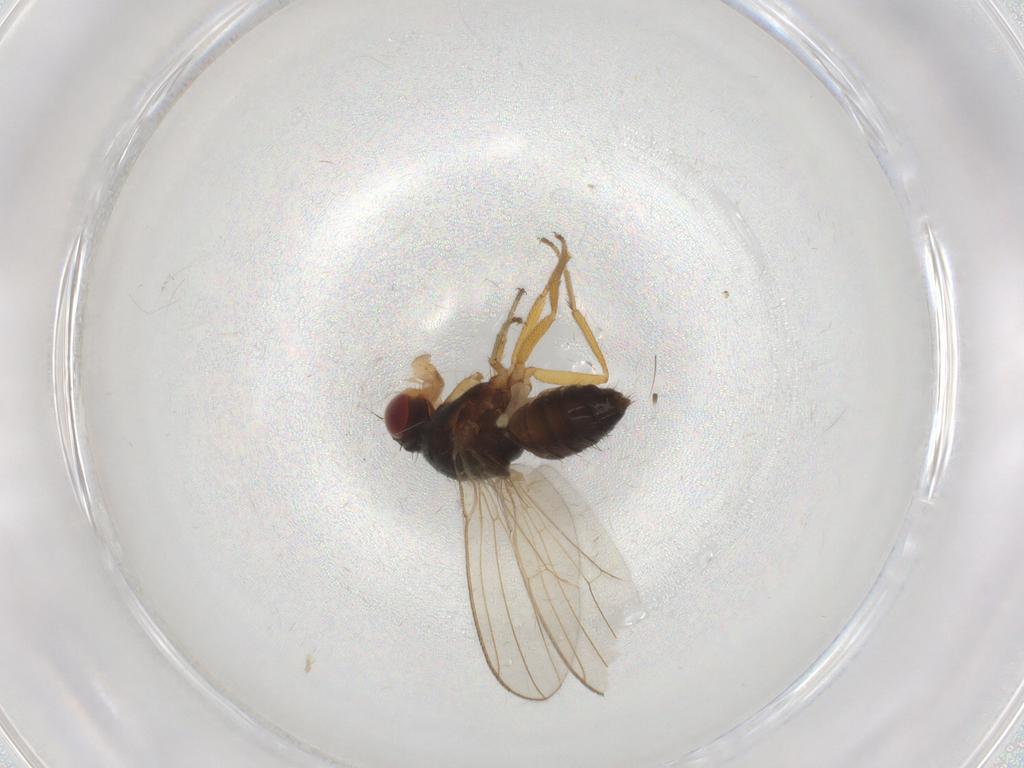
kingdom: Animalia
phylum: Arthropoda
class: Insecta
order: Diptera
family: Drosophilidae
